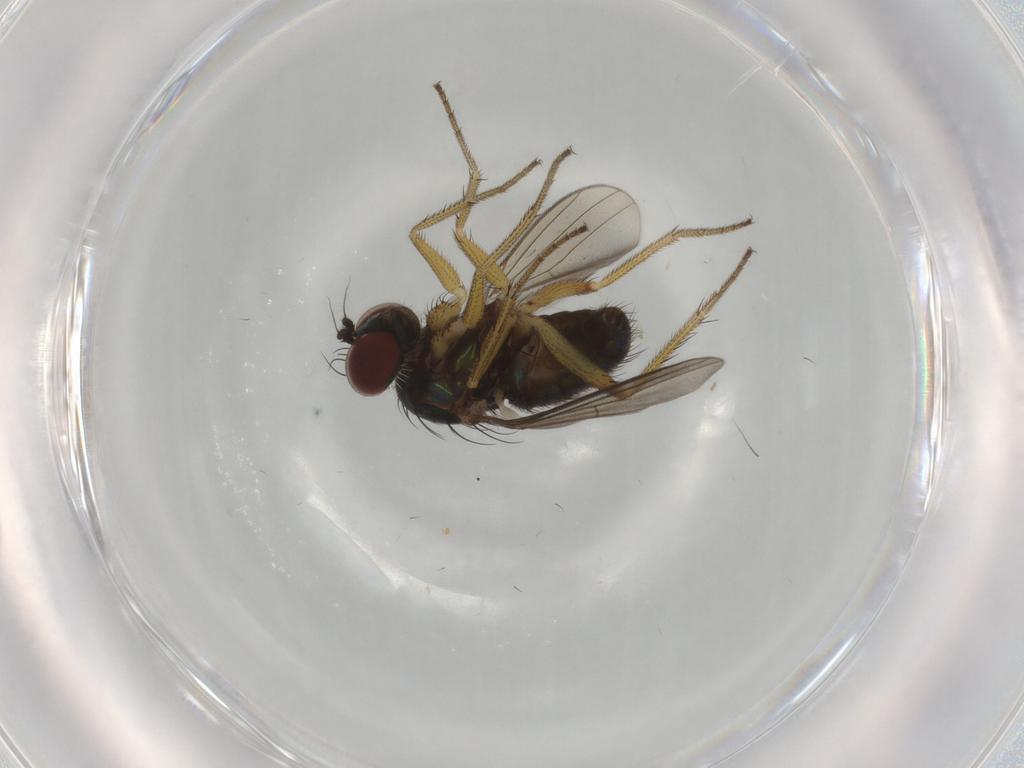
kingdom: Animalia
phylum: Arthropoda
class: Insecta
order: Diptera
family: Dolichopodidae
